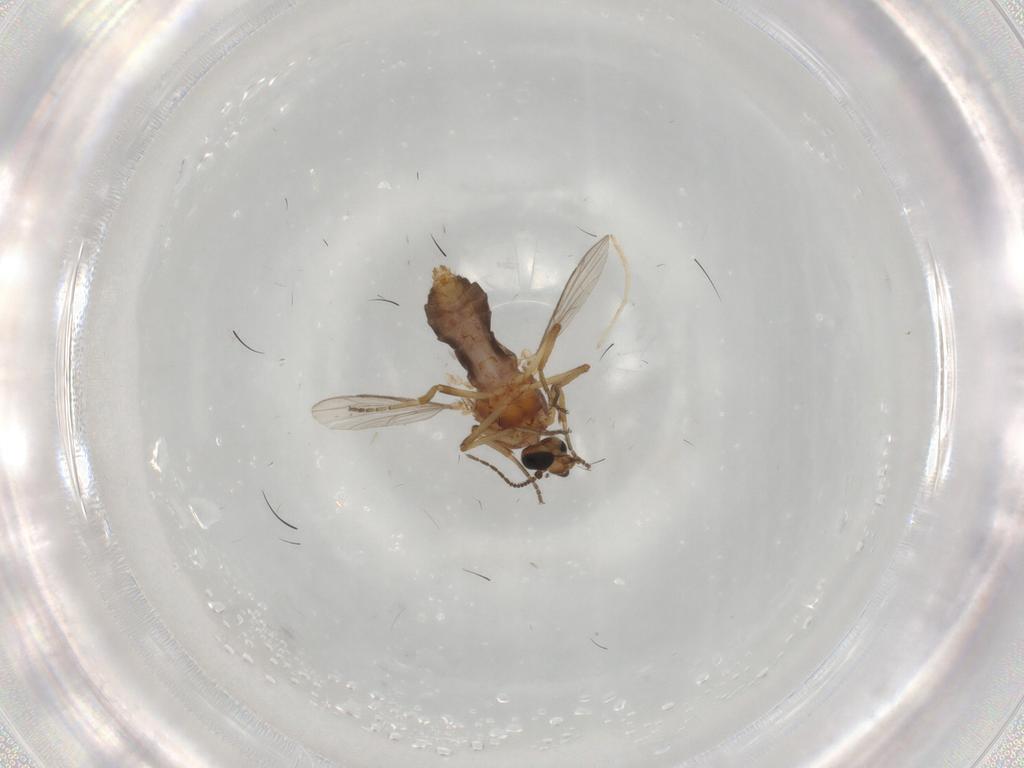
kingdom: Animalia
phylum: Arthropoda
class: Insecta
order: Diptera
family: Ceratopogonidae
